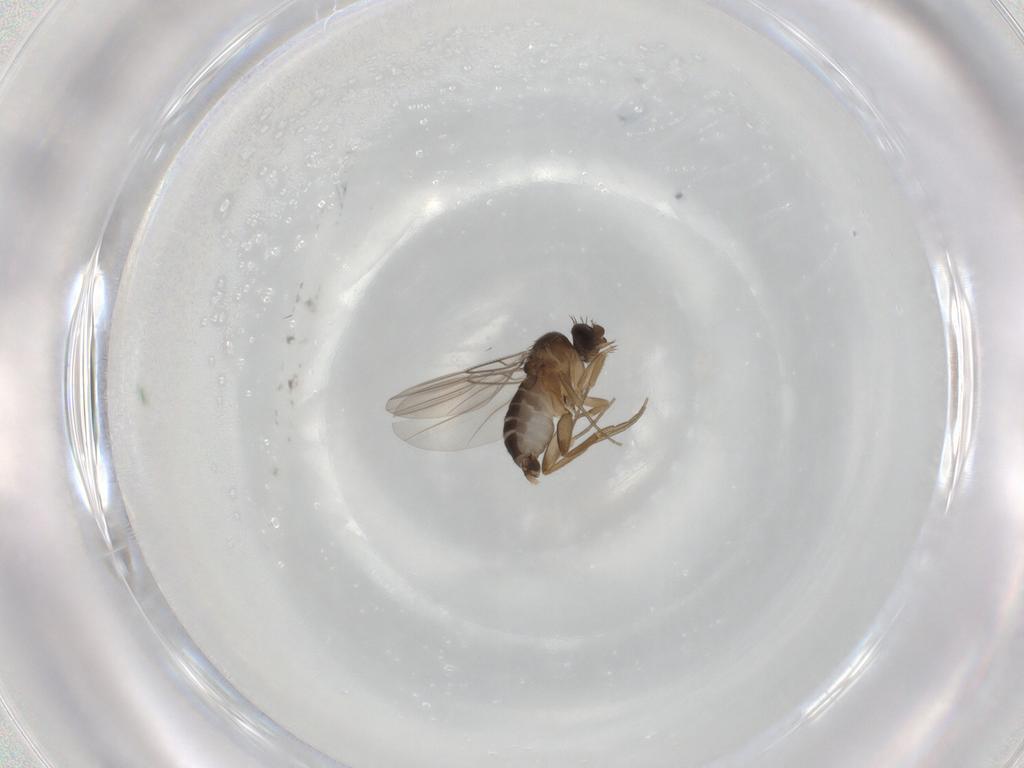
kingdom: Animalia
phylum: Arthropoda
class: Insecta
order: Diptera
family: Phoridae
